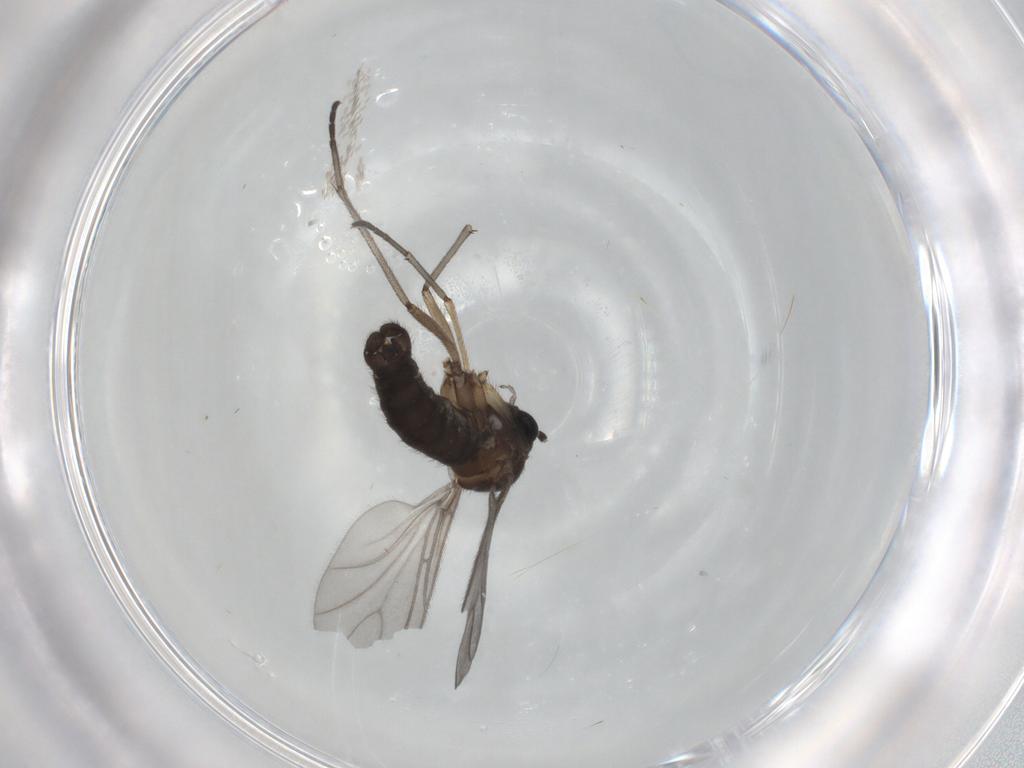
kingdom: Animalia
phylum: Arthropoda
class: Insecta
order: Diptera
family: Sciaridae
